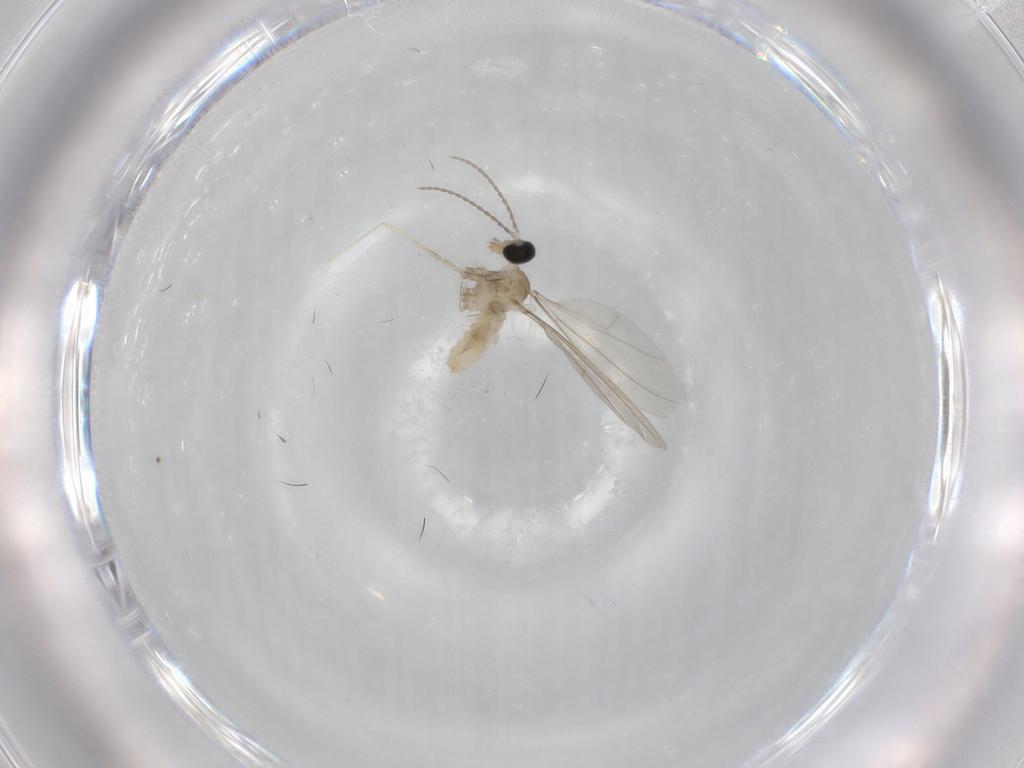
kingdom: Animalia
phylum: Arthropoda
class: Insecta
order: Diptera
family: Cecidomyiidae
